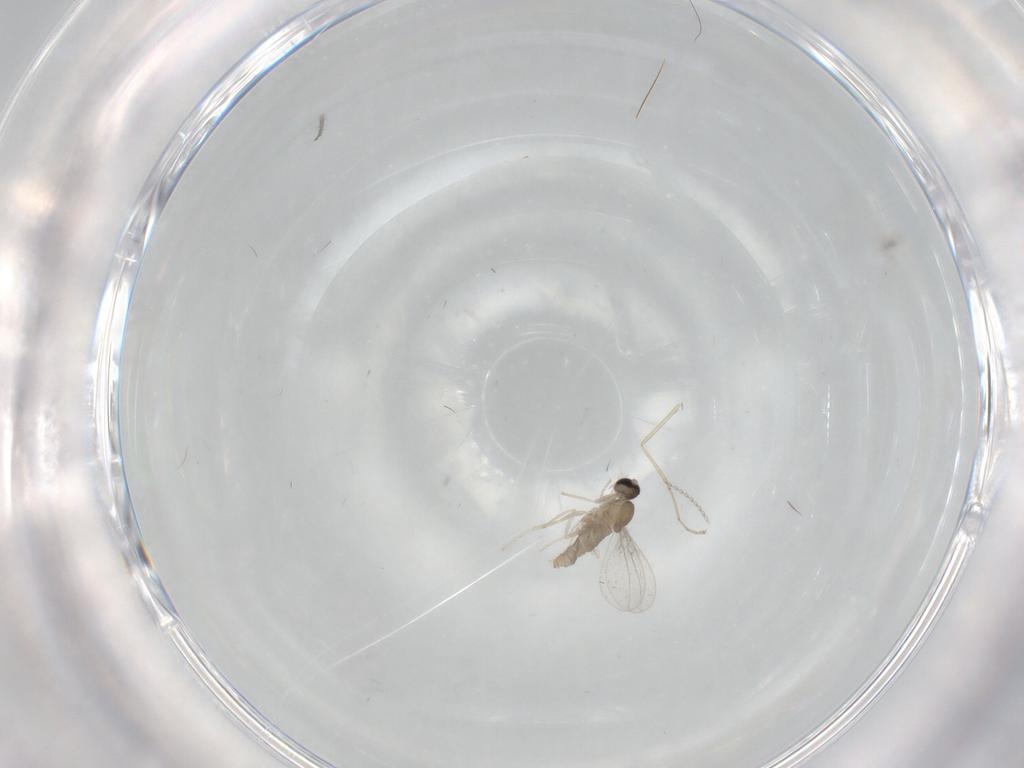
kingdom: Animalia
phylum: Arthropoda
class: Insecta
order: Diptera
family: Cecidomyiidae
